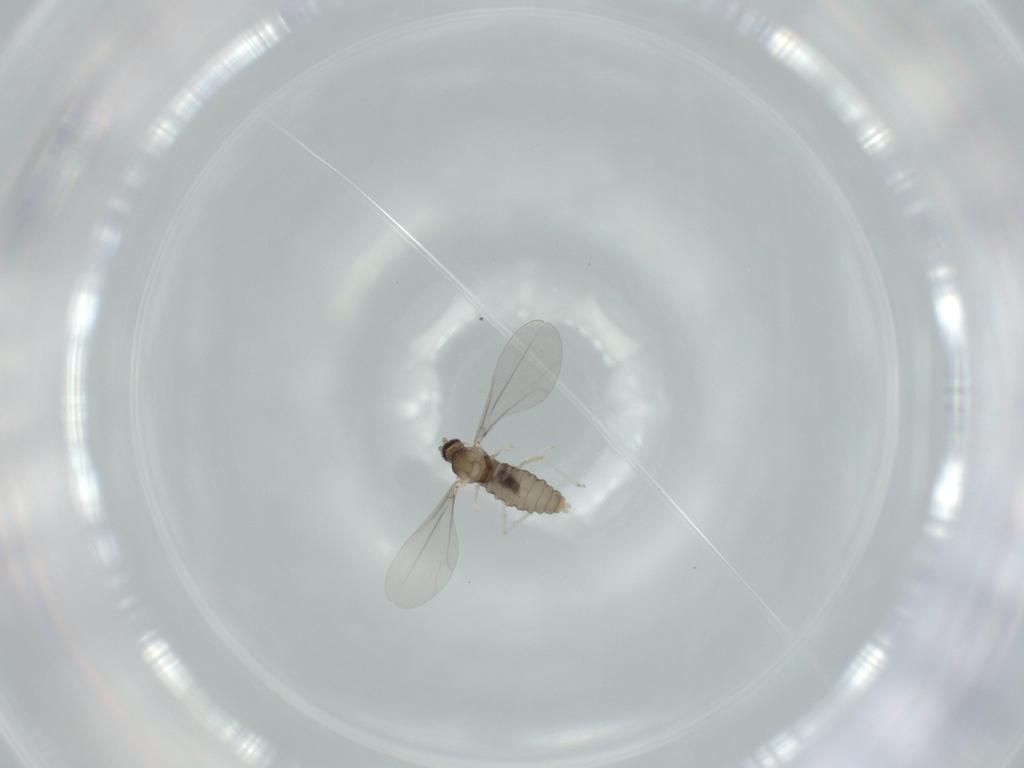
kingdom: Animalia
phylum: Arthropoda
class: Insecta
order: Diptera
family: Cecidomyiidae
